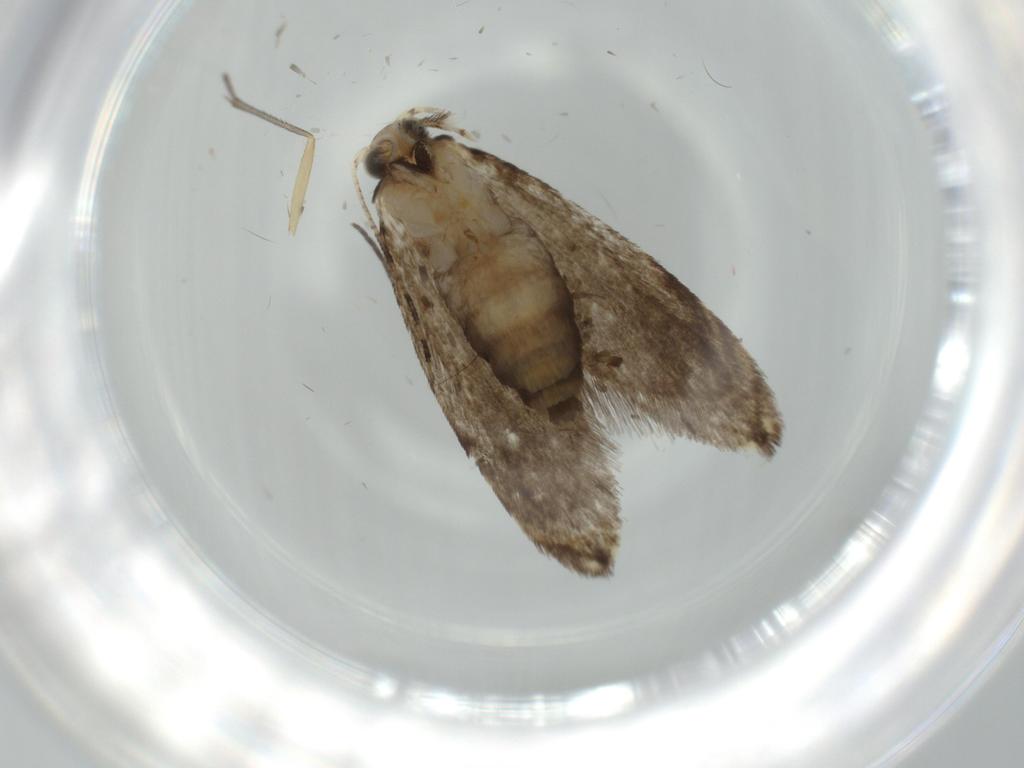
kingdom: Animalia
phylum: Arthropoda
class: Insecta
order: Lepidoptera
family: Tineidae
